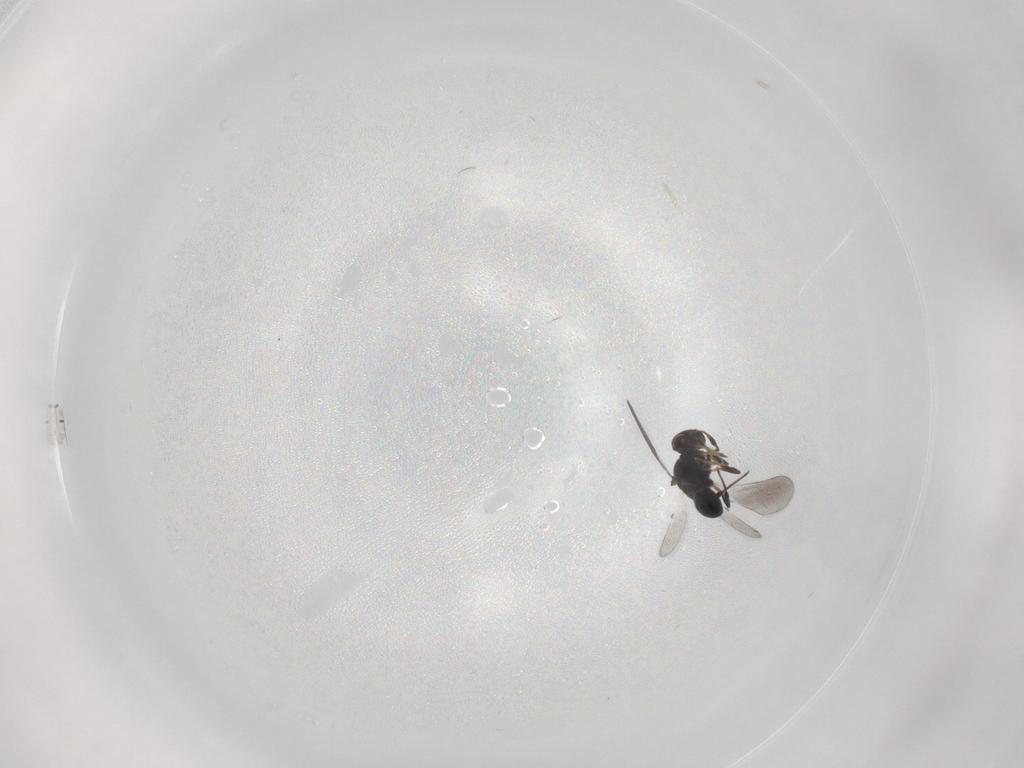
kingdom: Animalia
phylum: Arthropoda
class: Insecta
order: Hymenoptera
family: Platygastridae
